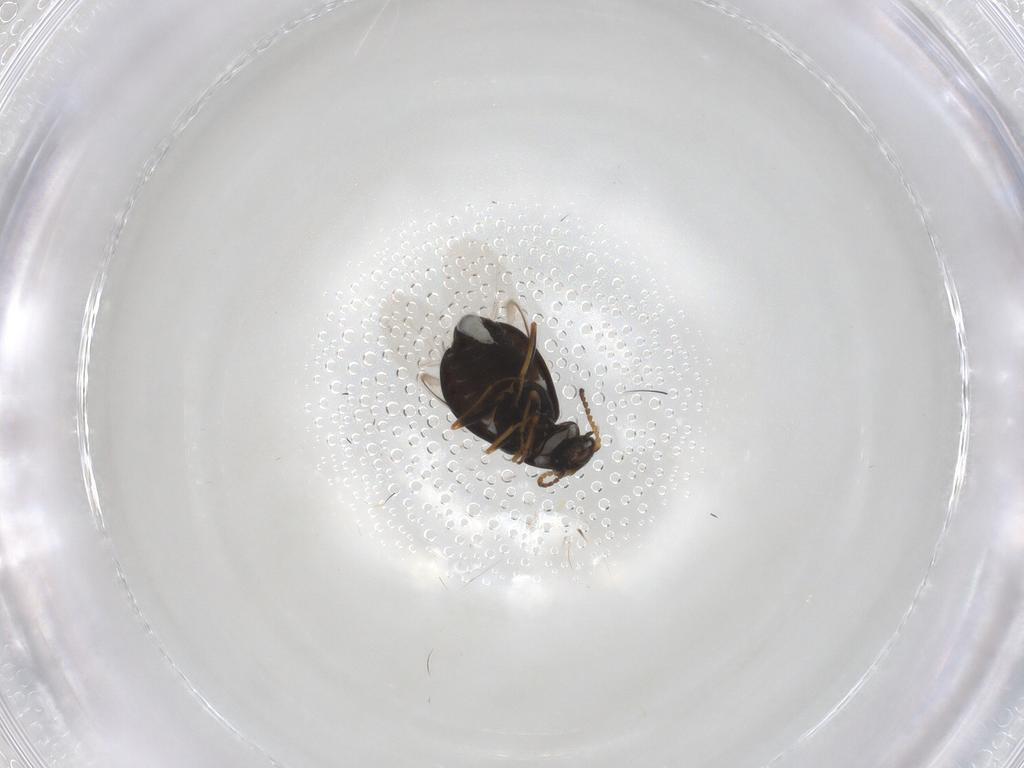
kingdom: Animalia
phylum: Arthropoda
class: Insecta
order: Coleoptera
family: Melyridae
